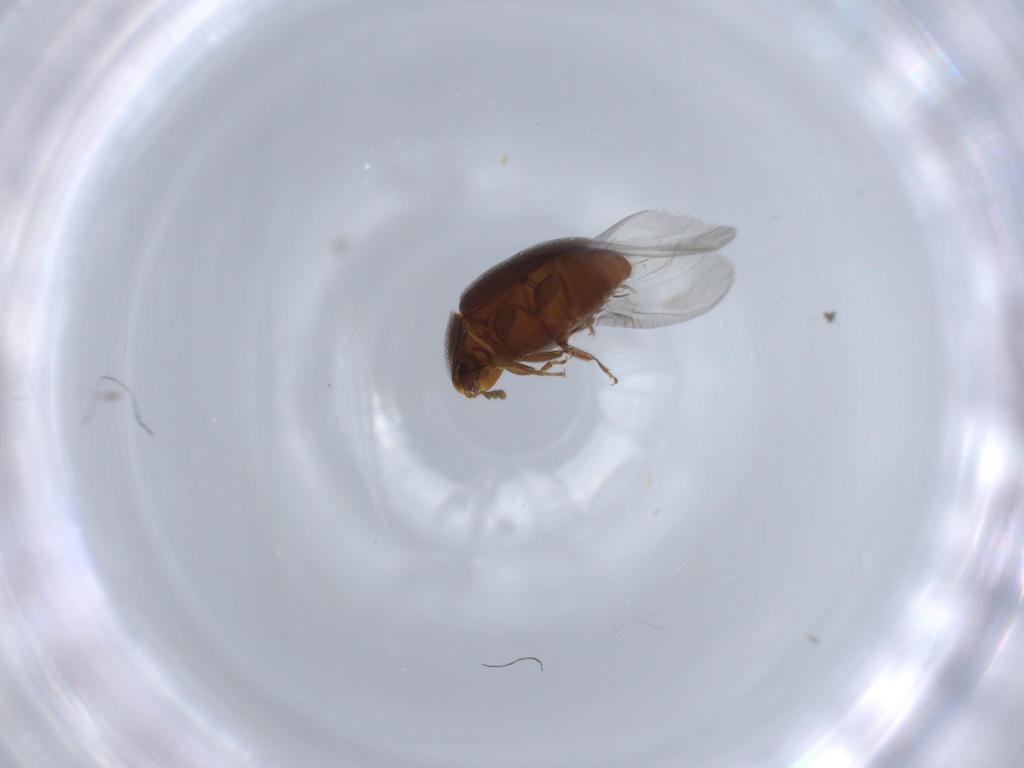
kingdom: Animalia
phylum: Arthropoda
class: Insecta
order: Coleoptera
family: Corylophidae
